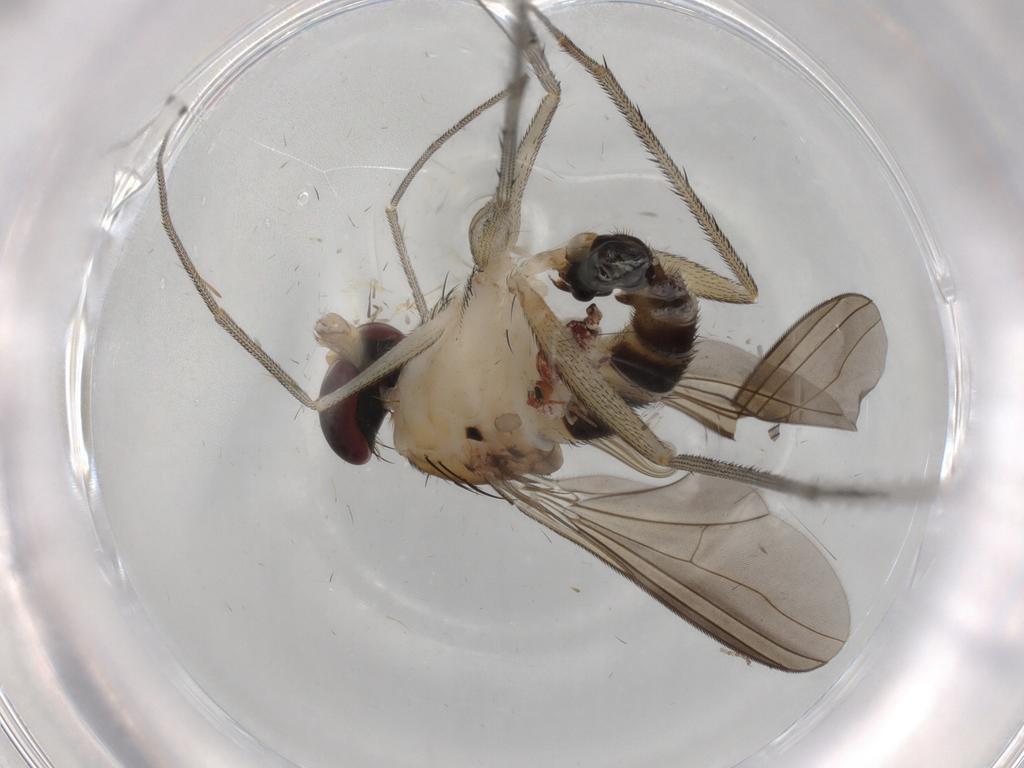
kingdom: Animalia
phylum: Arthropoda
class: Insecta
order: Diptera
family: Dolichopodidae
